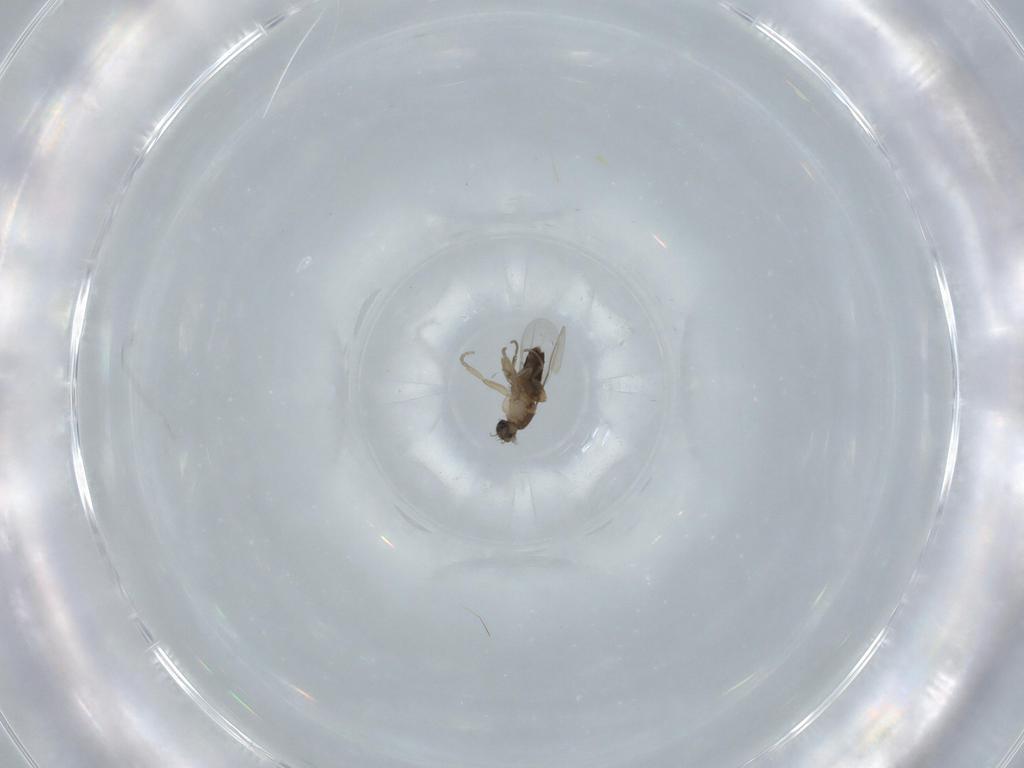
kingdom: Animalia
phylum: Arthropoda
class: Insecta
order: Diptera
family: Phoridae
